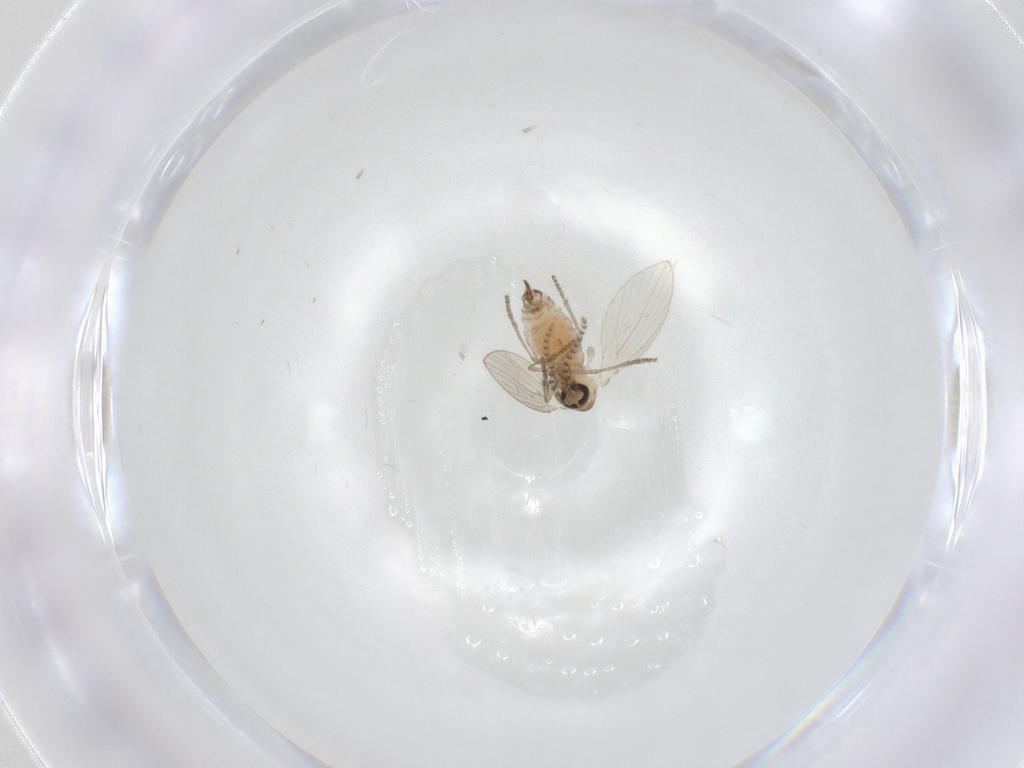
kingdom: Animalia
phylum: Arthropoda
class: Insecta
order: Diptera
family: Psychodidae
